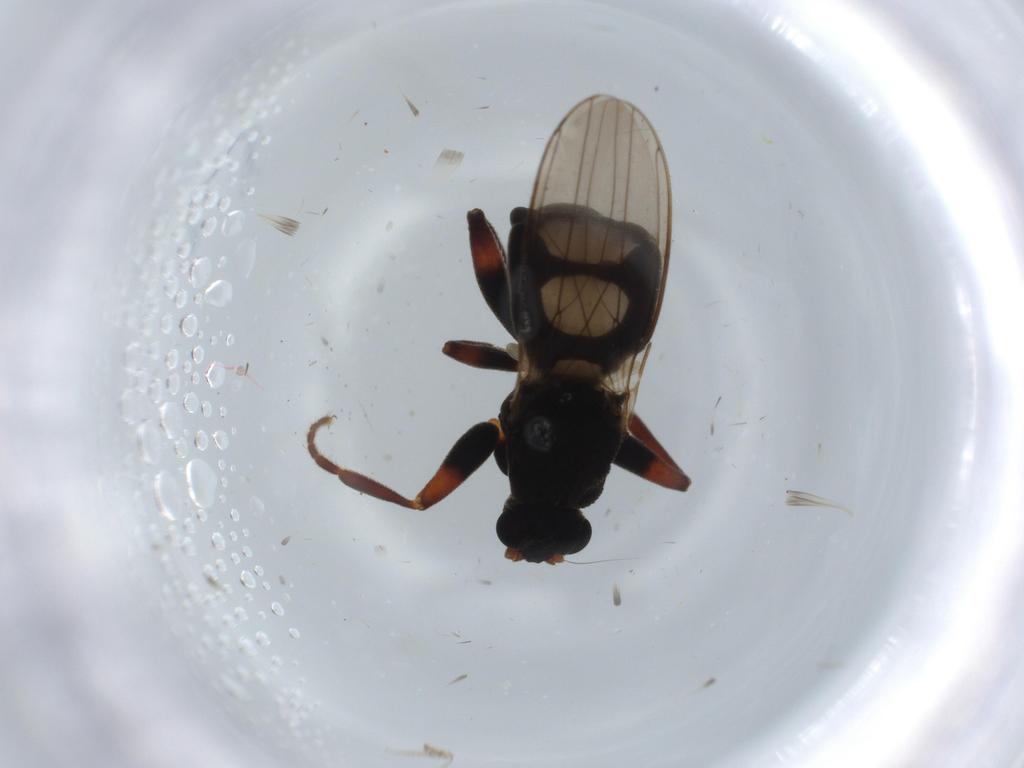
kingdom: Animalia
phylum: Arthropoda
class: Insecta
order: Diptera
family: Sphaeroceridae
